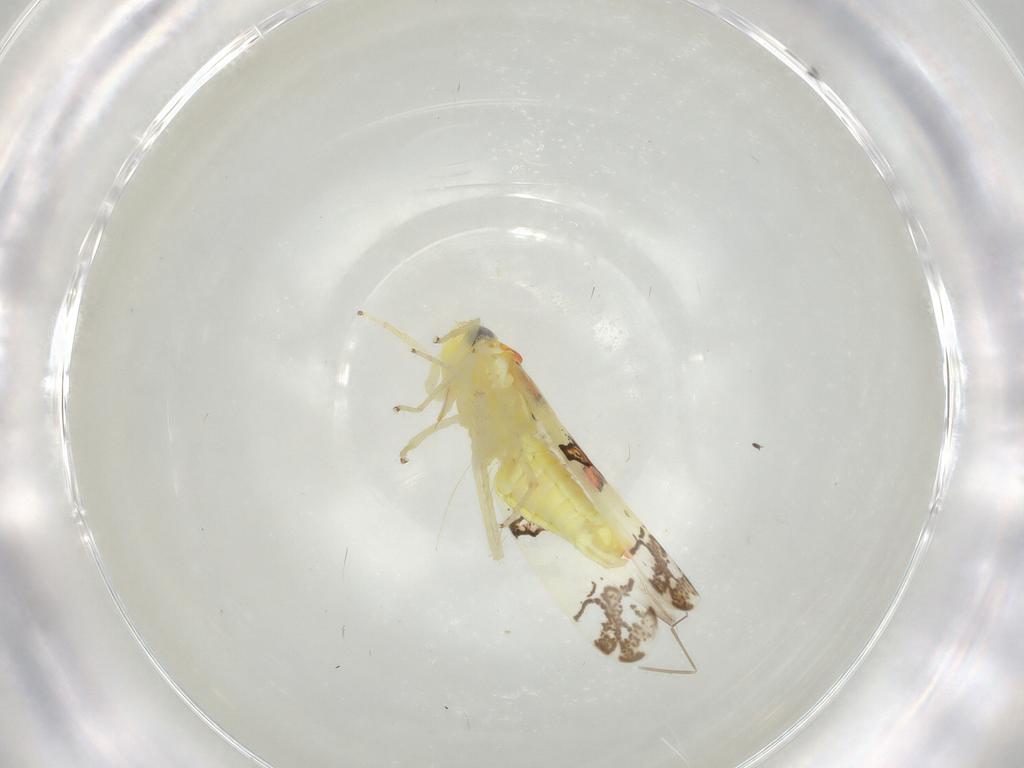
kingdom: Animalia
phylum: Arthropoda
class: Insecta
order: Hemiptera
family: Cicadellidae
